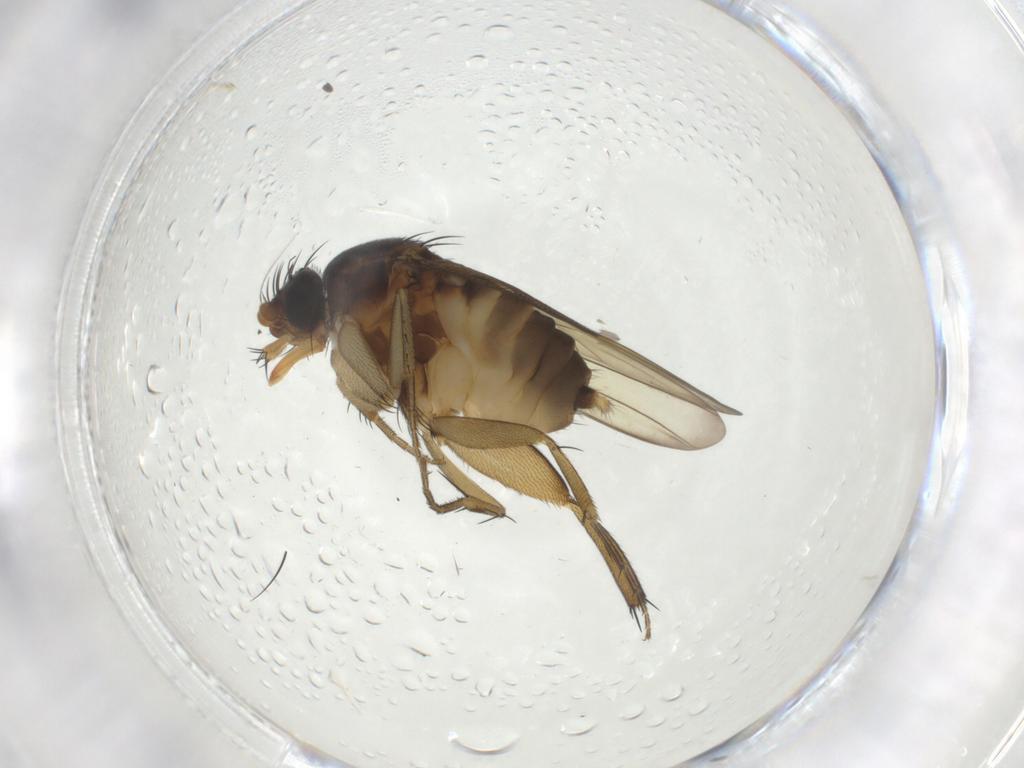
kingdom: Animalia
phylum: Arthropoda
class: Insecta
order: Diptera
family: Phoridae
